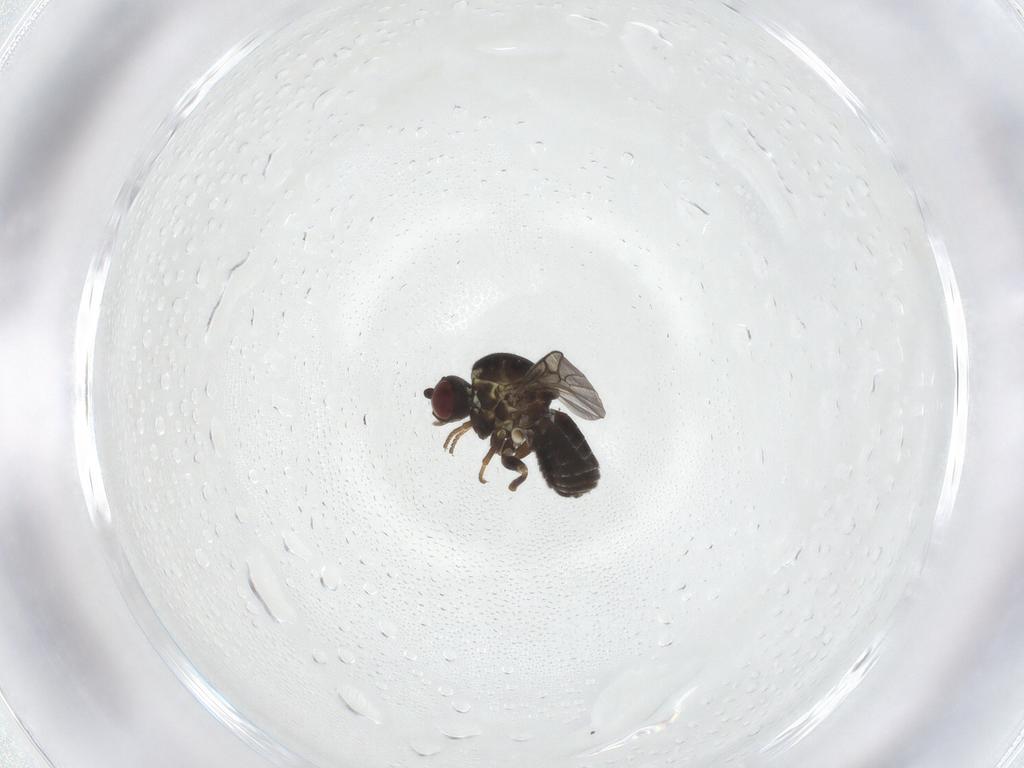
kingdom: Animalia
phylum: Arthropoda
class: Insecta
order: Diptera
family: Bombyliidae
